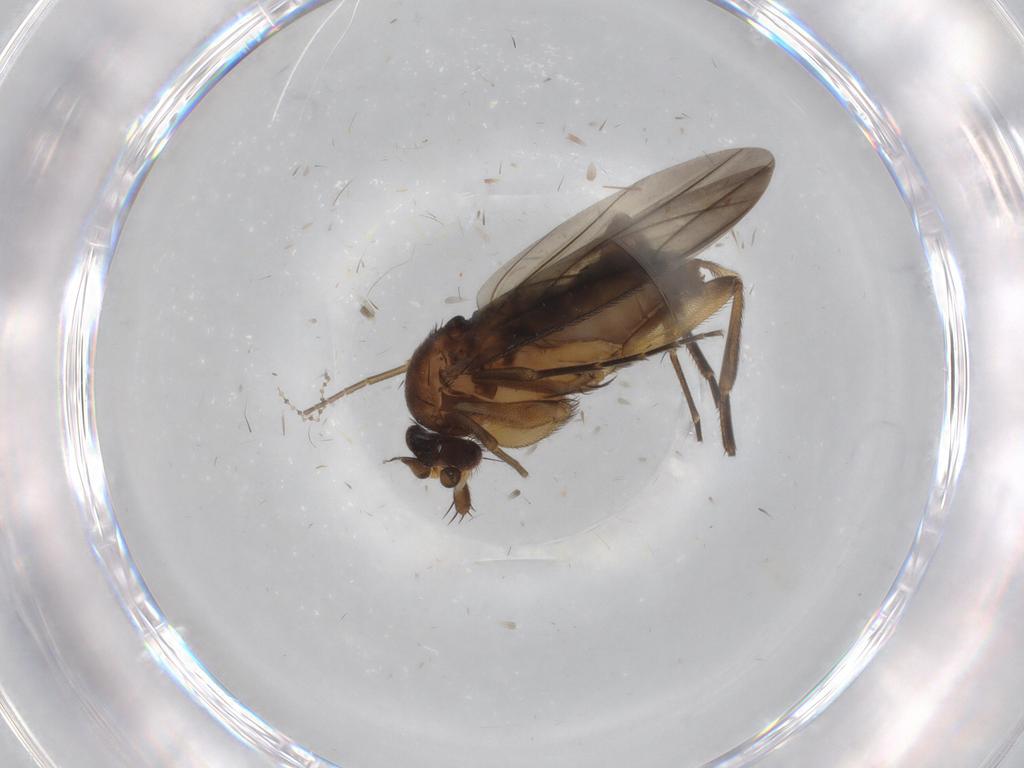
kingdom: Animalia
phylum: Arthropoda
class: Insecta
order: Diptera
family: Phoridae
